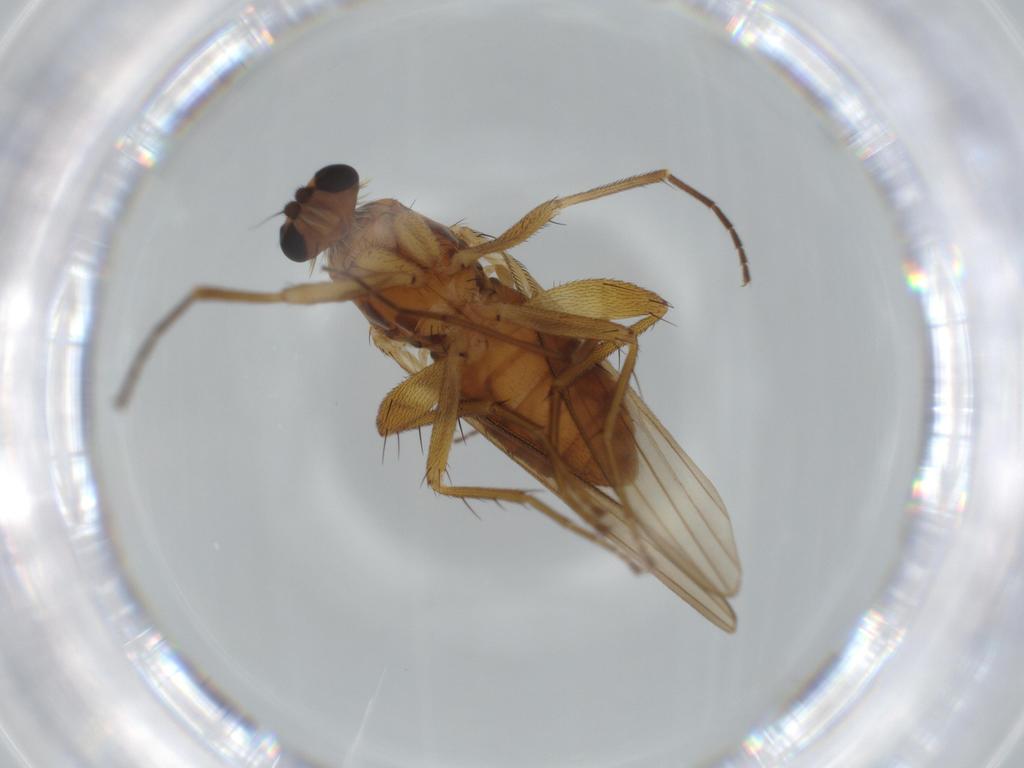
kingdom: Animalia
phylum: Arthropoda
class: Insecta
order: Diptera
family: Lonchopteridae
